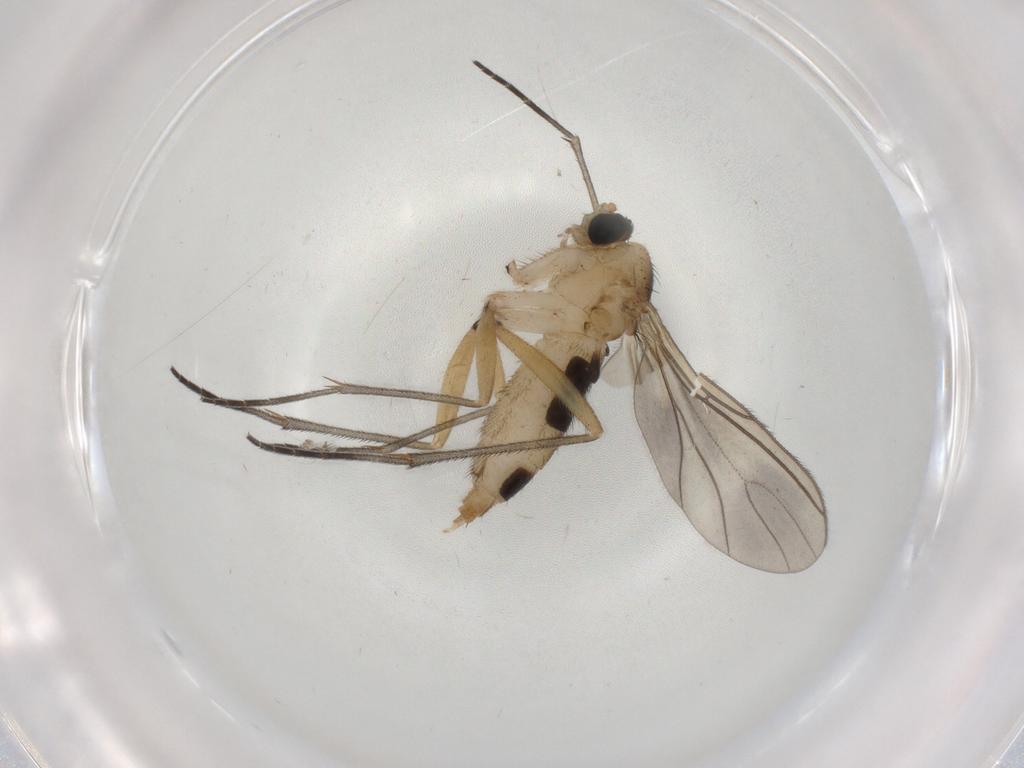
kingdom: Animalia
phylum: Arthropoda
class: Insecta
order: Diptera
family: Sciaridae
